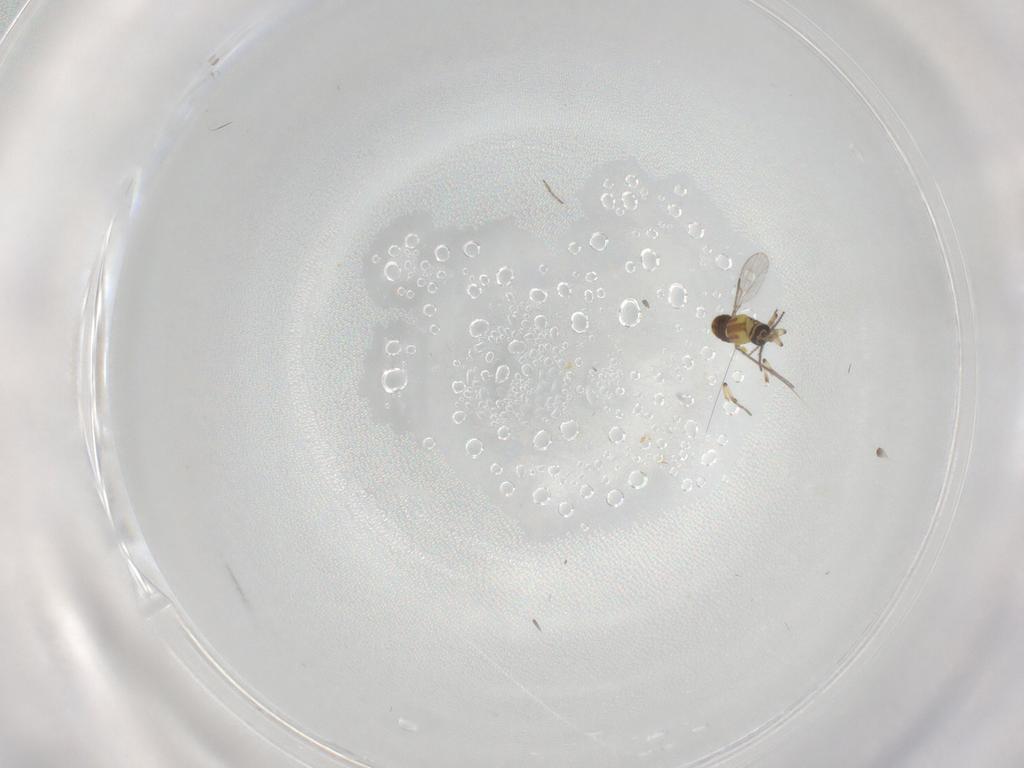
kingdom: Animalia
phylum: Arthropoda
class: Insecta
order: Diptera
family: Ceratopogonidae
